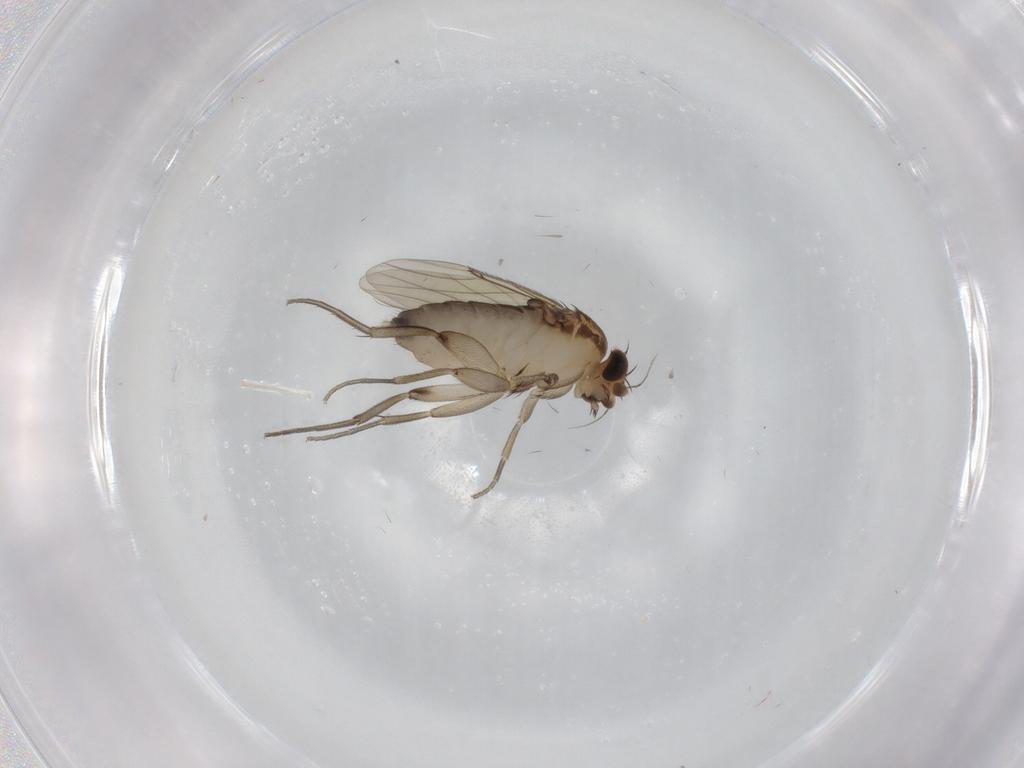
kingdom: Animalia
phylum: Arthropoda
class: Insecta
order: Diptera
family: Phoridae
